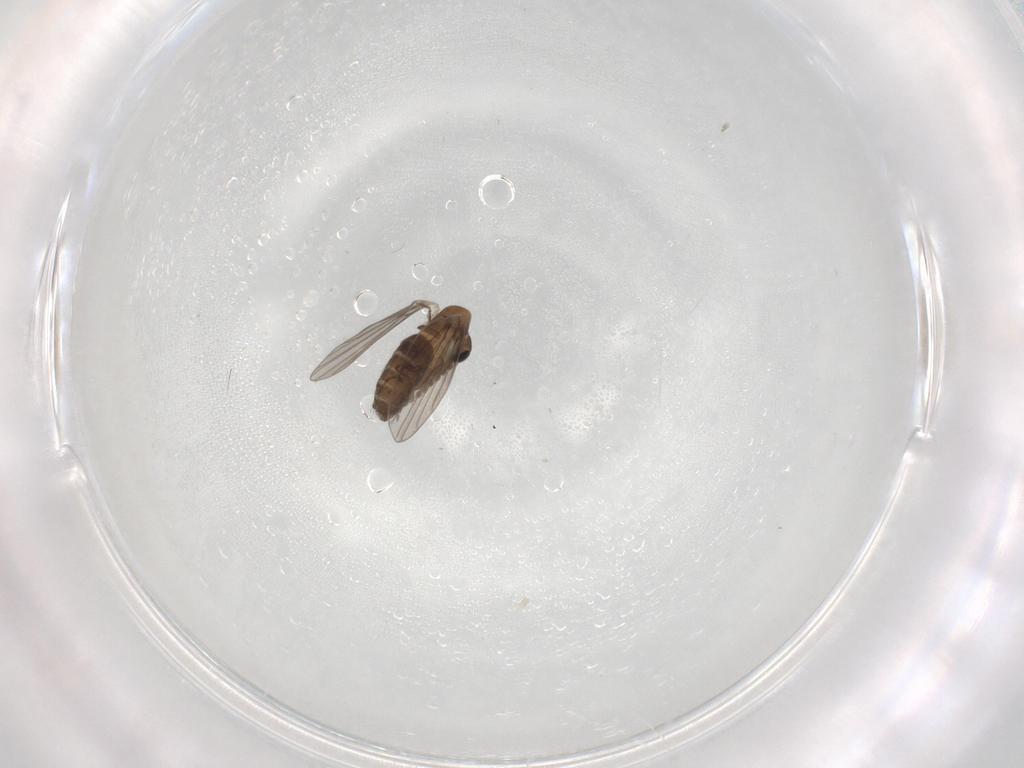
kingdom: Animalia
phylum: Arthropoda
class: Insecta
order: Diptera
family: Psychodidae
